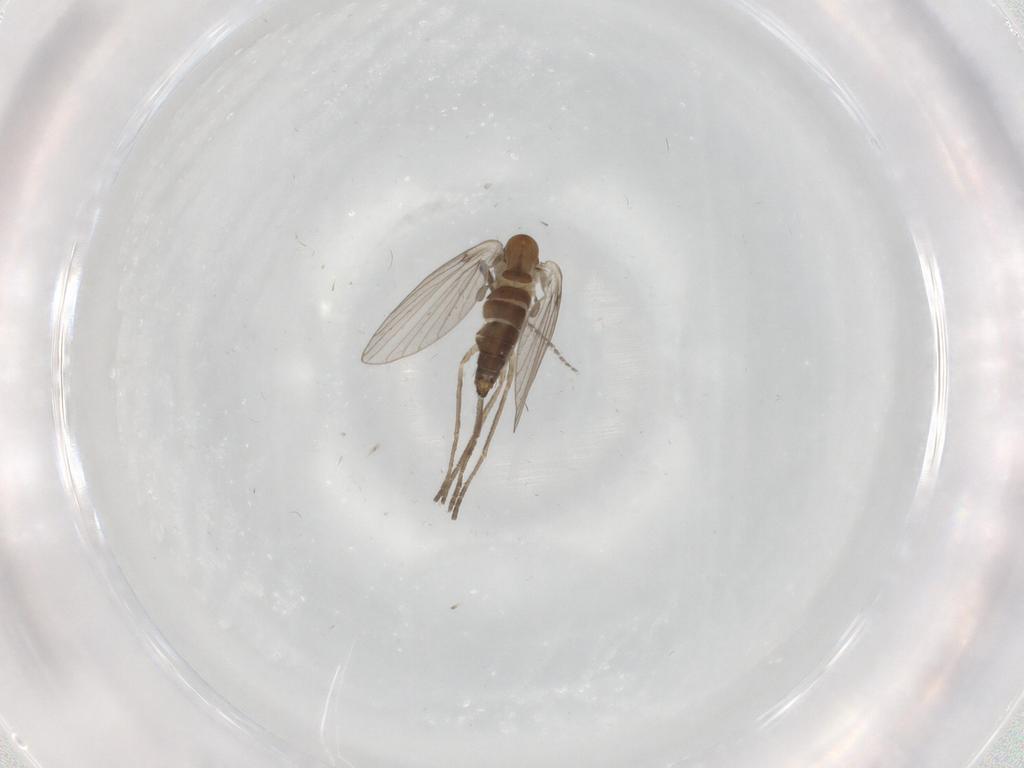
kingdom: Animalia
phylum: Arthropoda
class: Insecta
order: Diptera
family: Psychodidae
